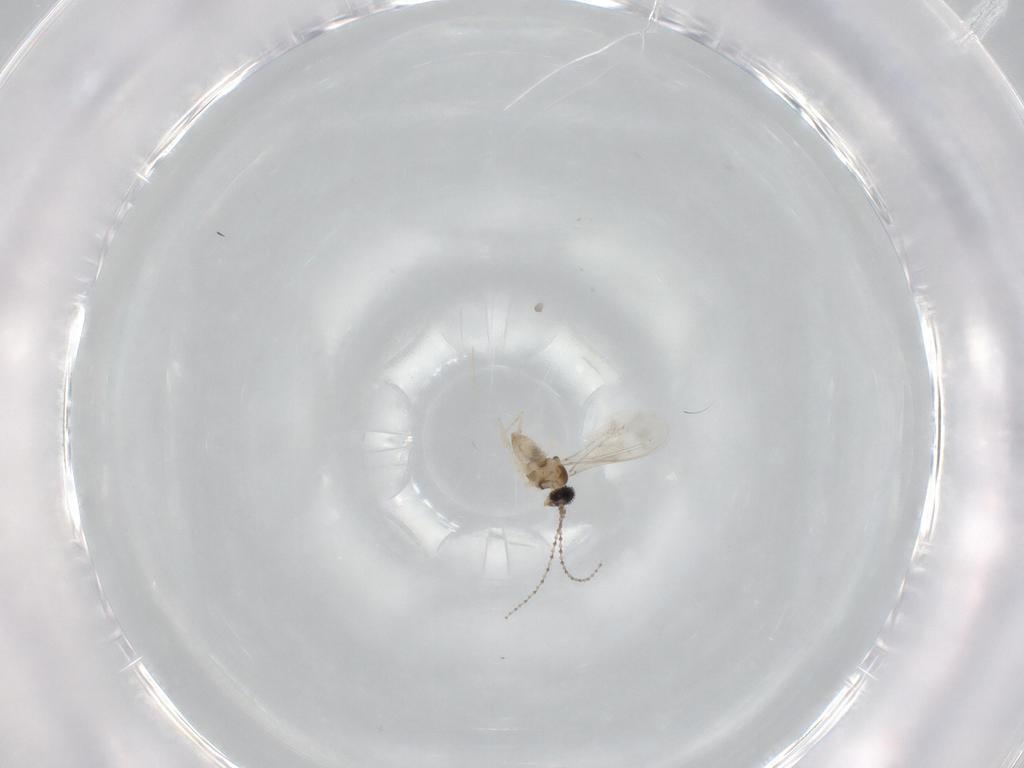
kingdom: Animalia
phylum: Arthropoda
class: Insecta
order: Diptera
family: Cecidomyiidae
